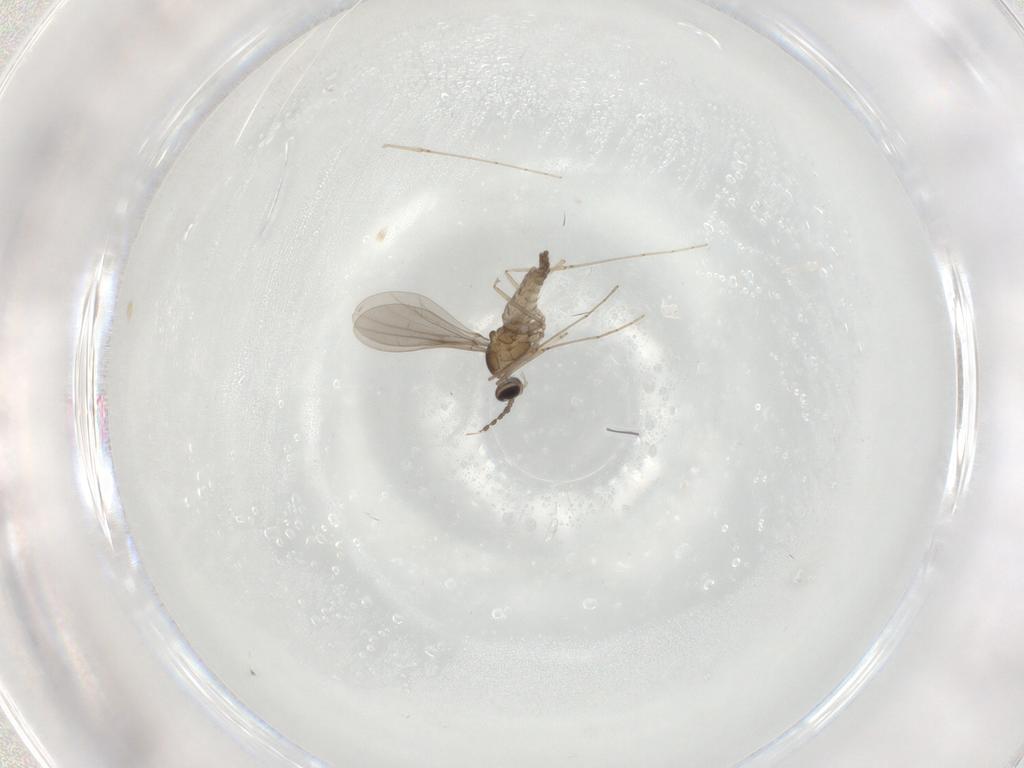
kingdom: Animalia
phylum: Arthropoda
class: Insecta
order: Diptera
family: Cecidomyiidae
